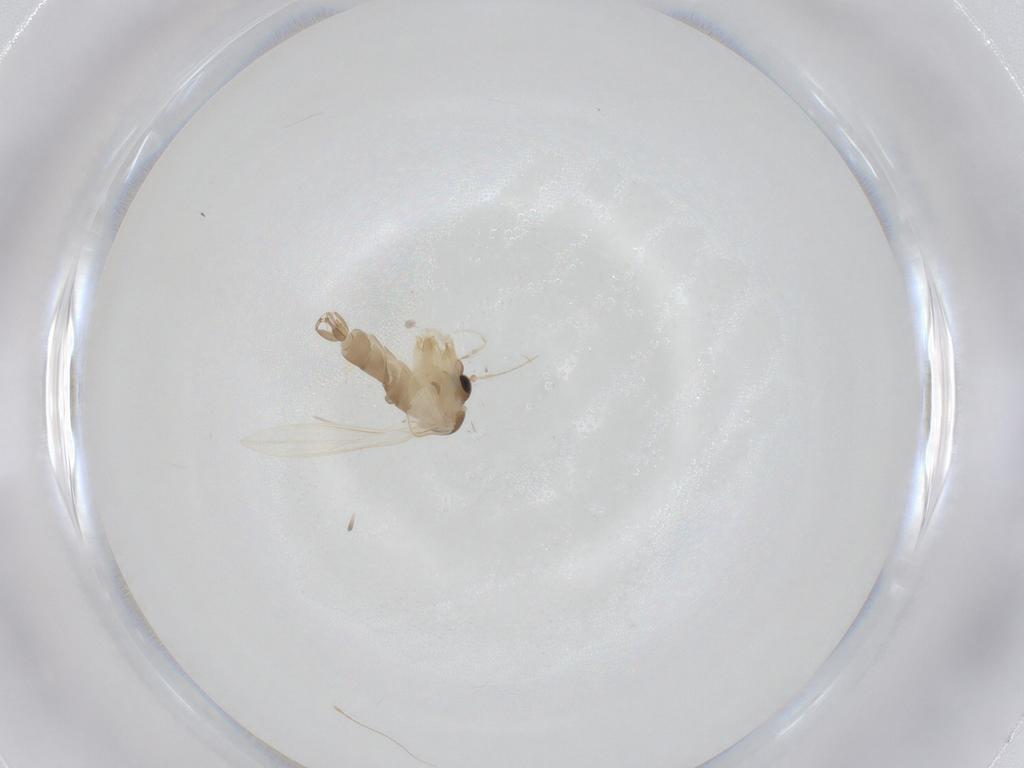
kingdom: Animalia
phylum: Arthropoda
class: Insecta
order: Diptera
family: Psychodidae
